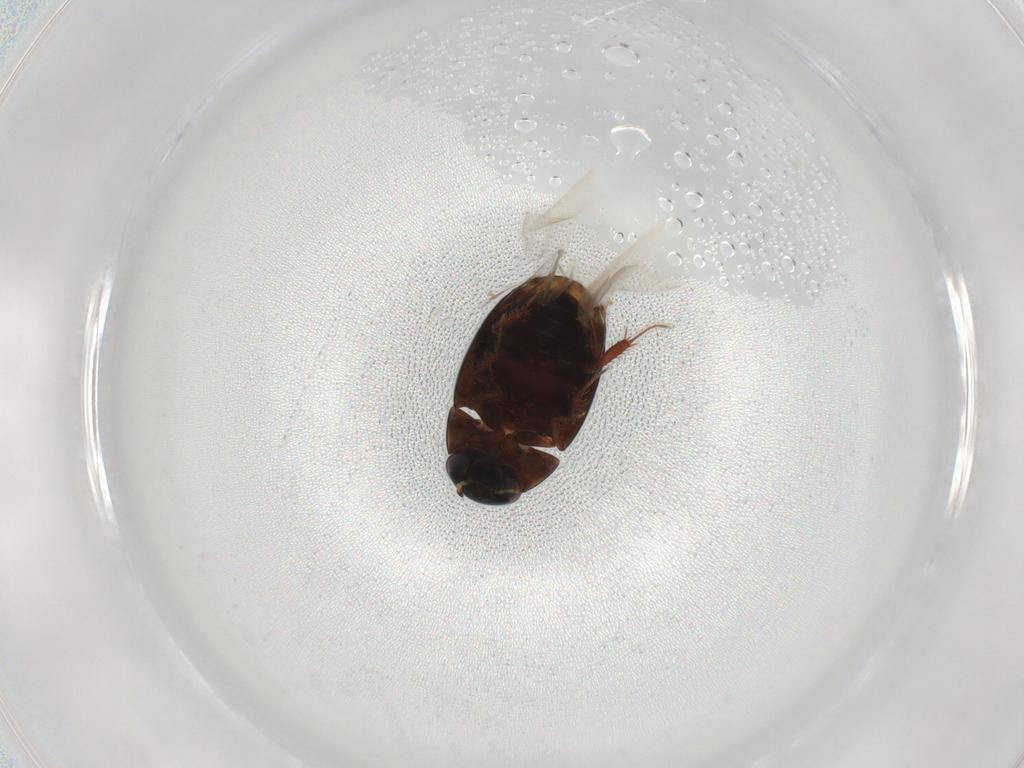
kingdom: Animalia
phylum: Arthropoda
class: Insecta
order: Coleoptera
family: Hydrophilidae
